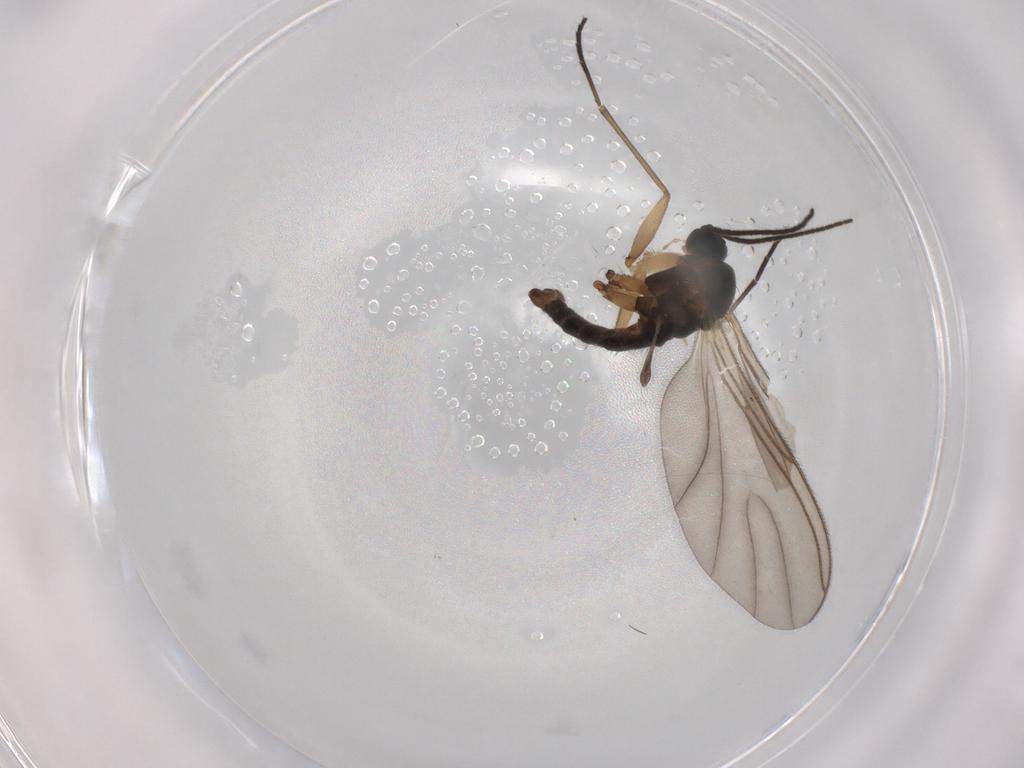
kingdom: Animalia
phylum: Arthropoda
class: Insecta
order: Diptera
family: Sciaridae
